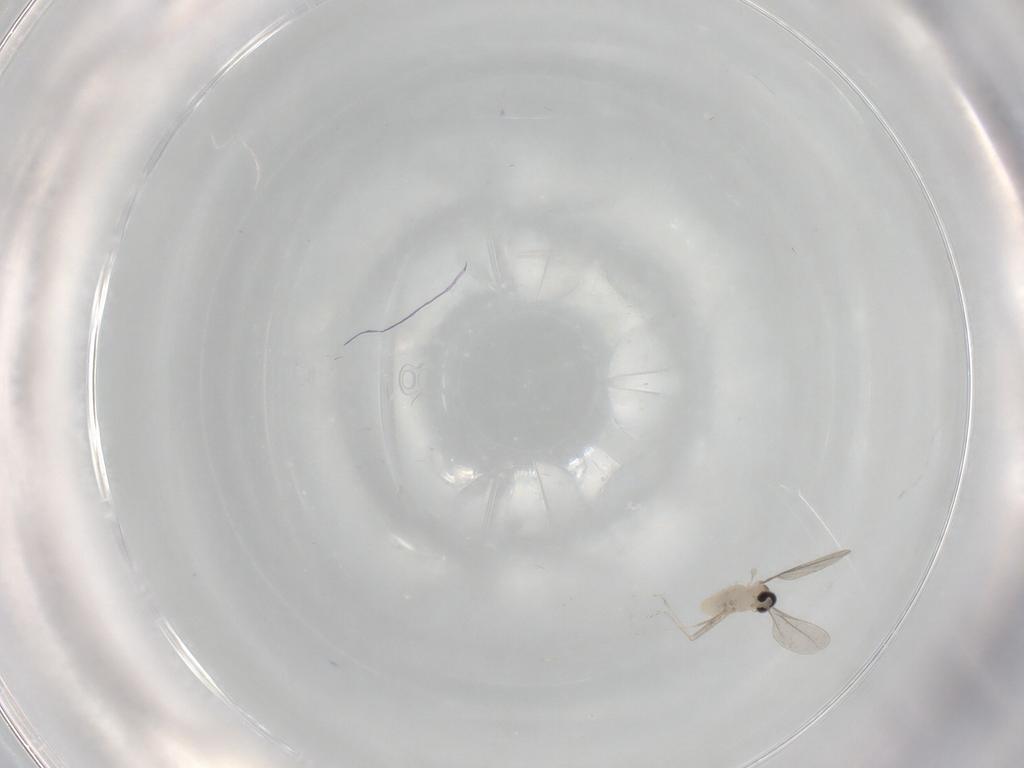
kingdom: Animalia
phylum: Arthropoda
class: Insecta
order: Diptera
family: Cecidomyiidae
